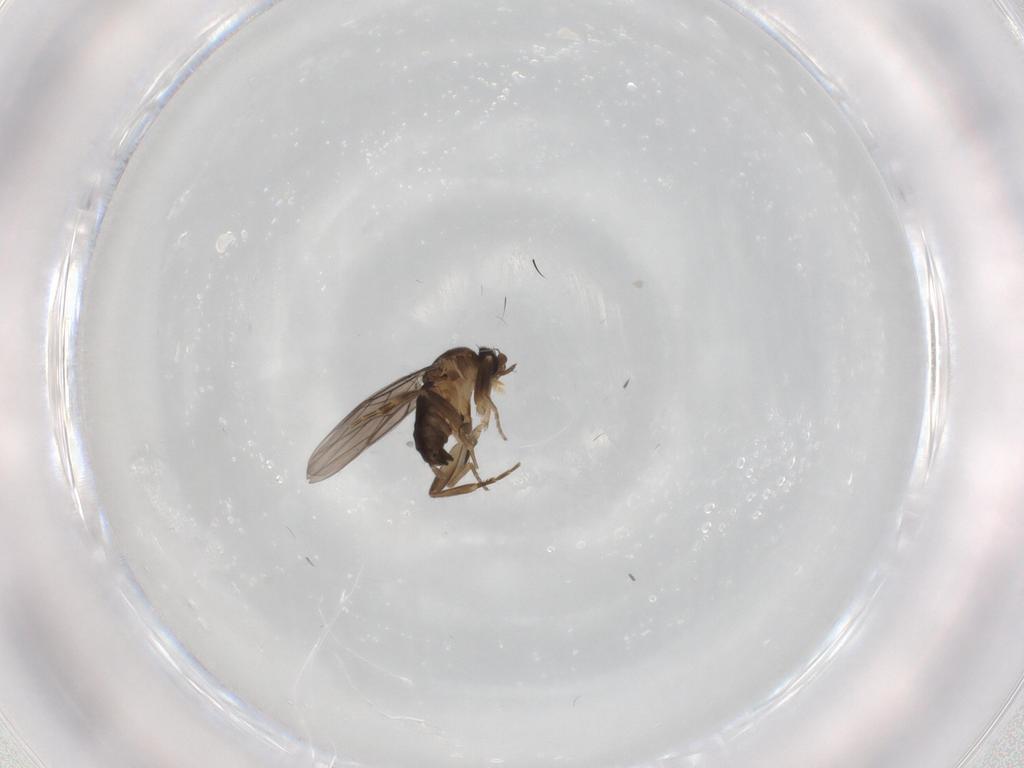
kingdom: Animalia
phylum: Arthropoda
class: Insecta
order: Diptera
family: Phoridae
